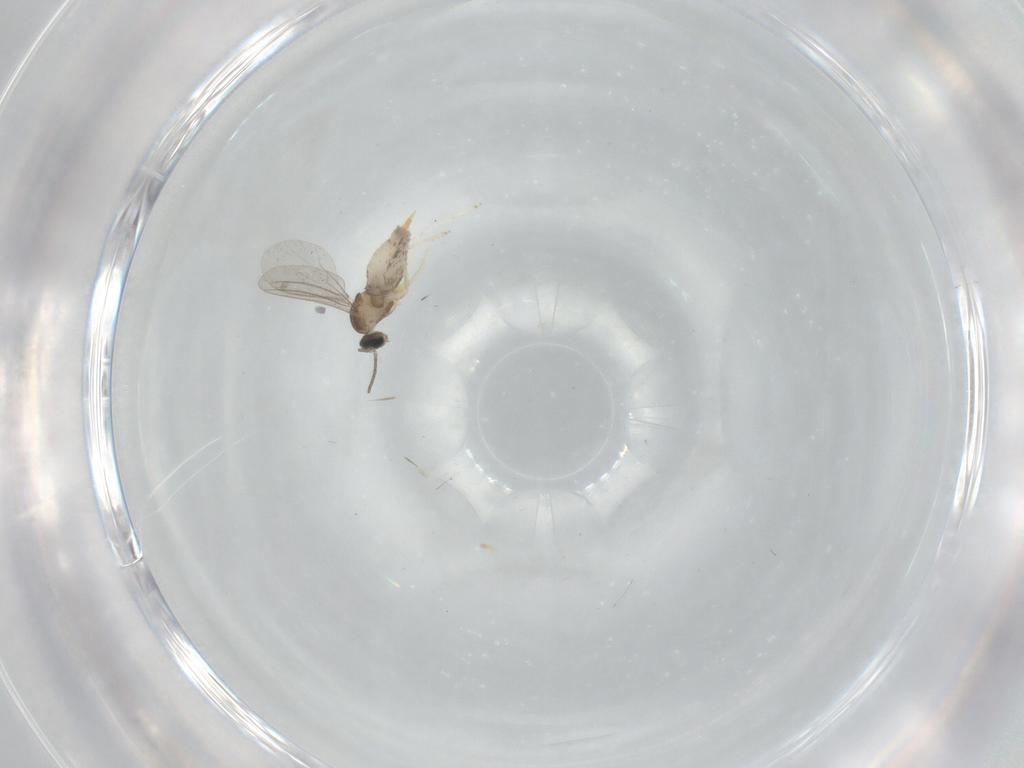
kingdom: Animalia
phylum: Arthropoda
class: Insecta
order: Diptera
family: Cecidomyiidae
